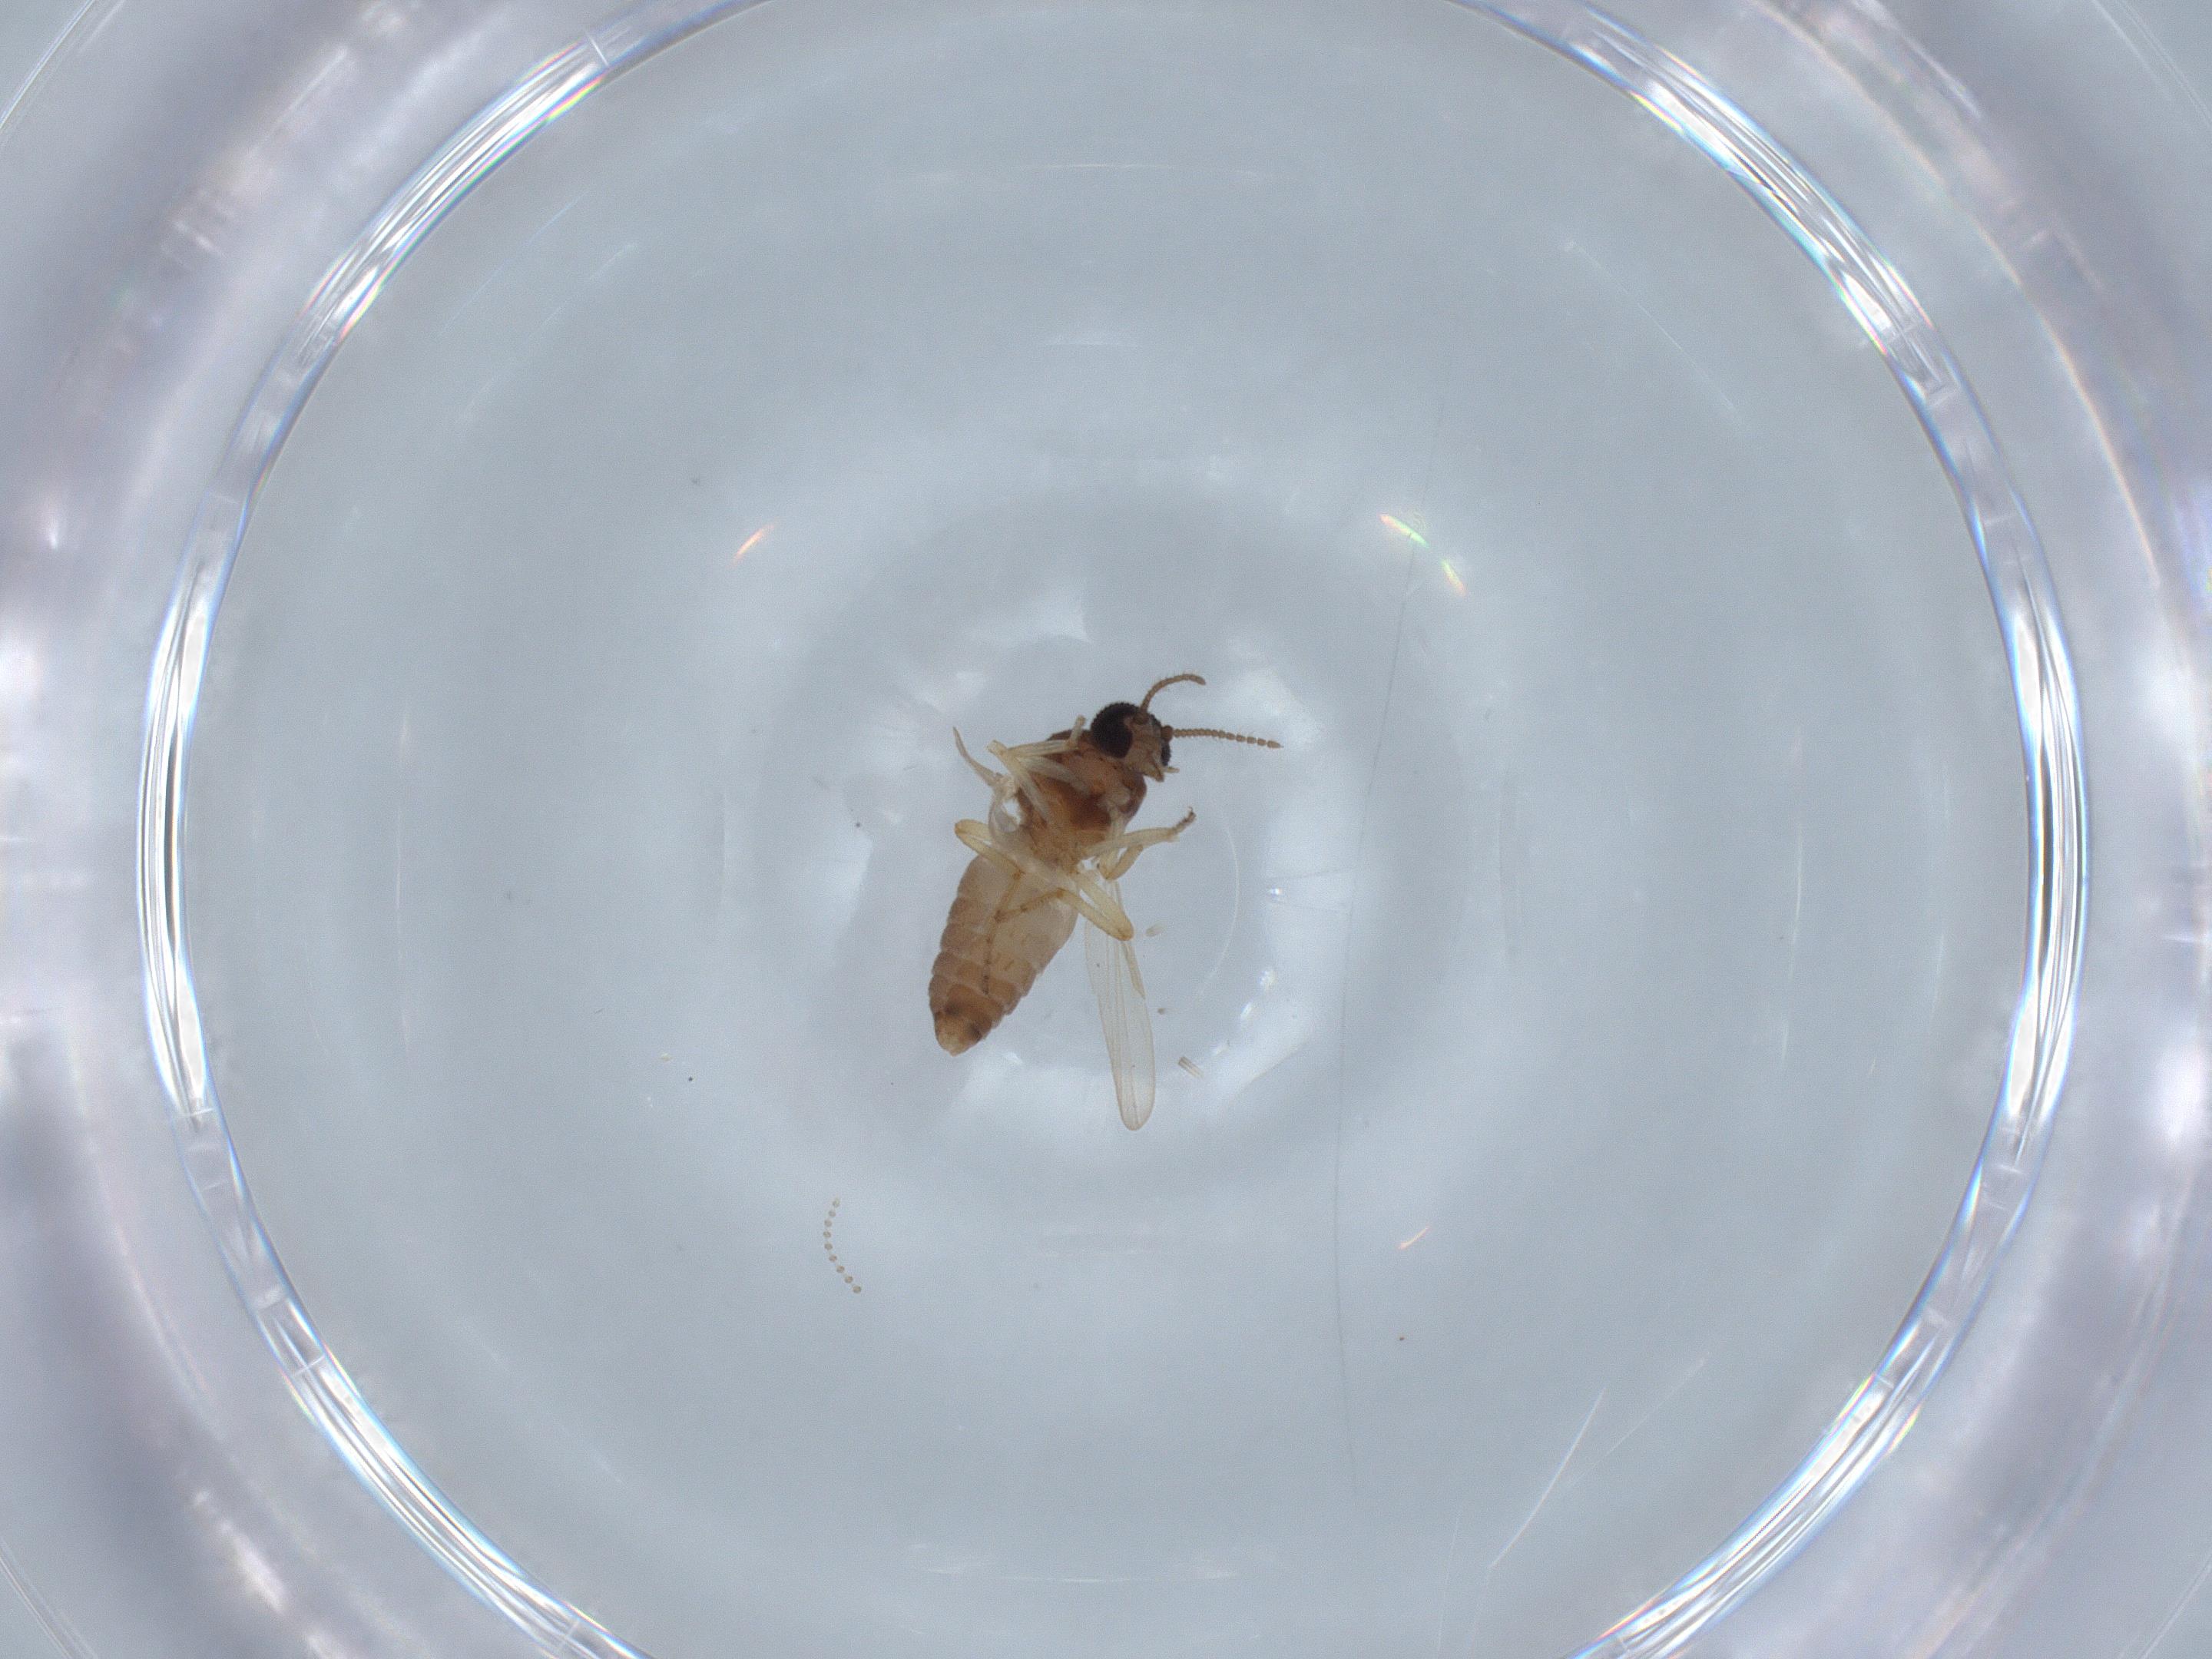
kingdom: Animalia
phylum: Arthropoda
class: Insecta
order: Diptera
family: Ceratopogonidae
